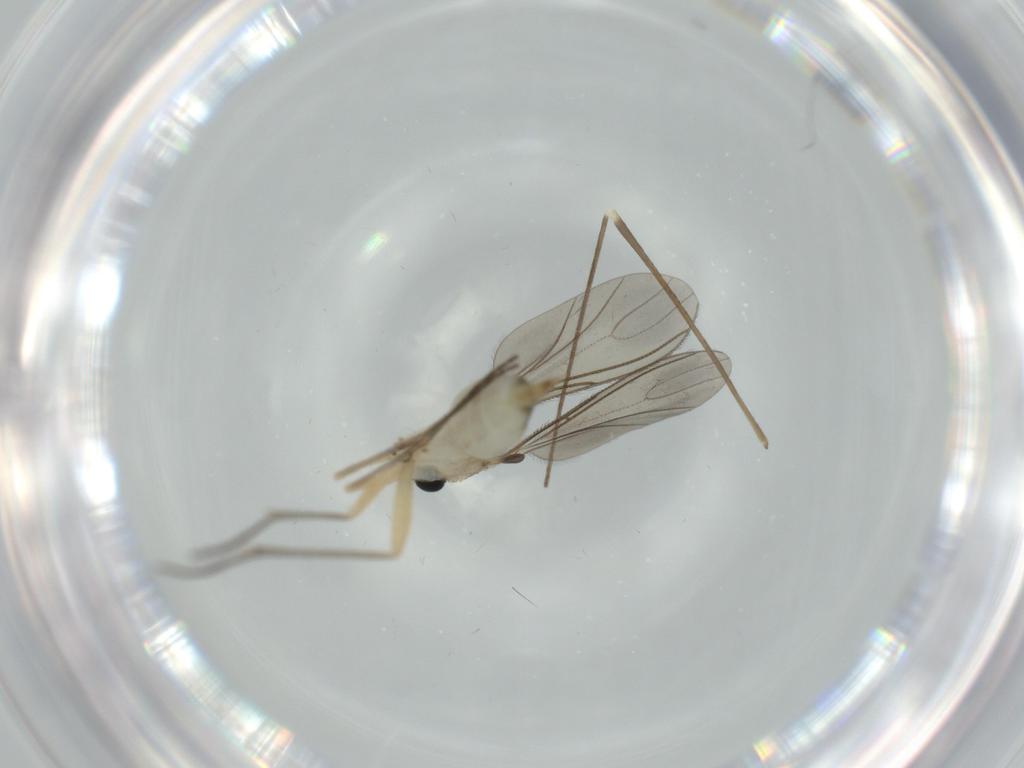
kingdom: Animalia
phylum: Arthropoda
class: Insecta
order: Diptera
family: Sciaridae
